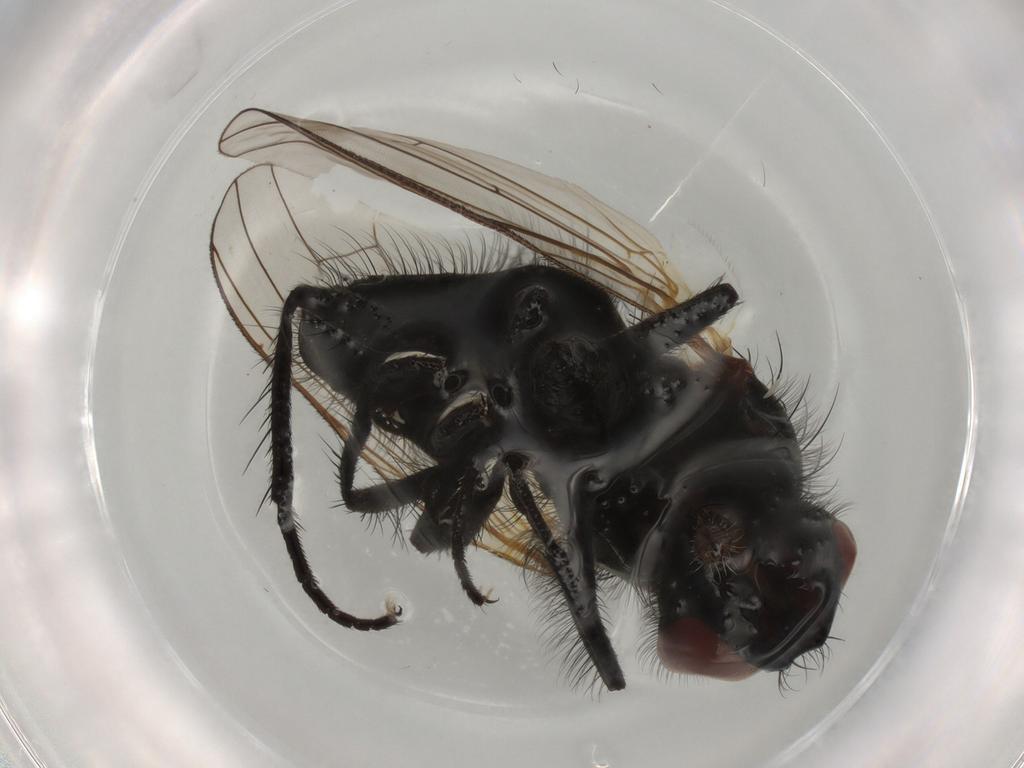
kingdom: Animalia
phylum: Arthropoda
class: Insecta
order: Diptera
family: Anthomyiidae
